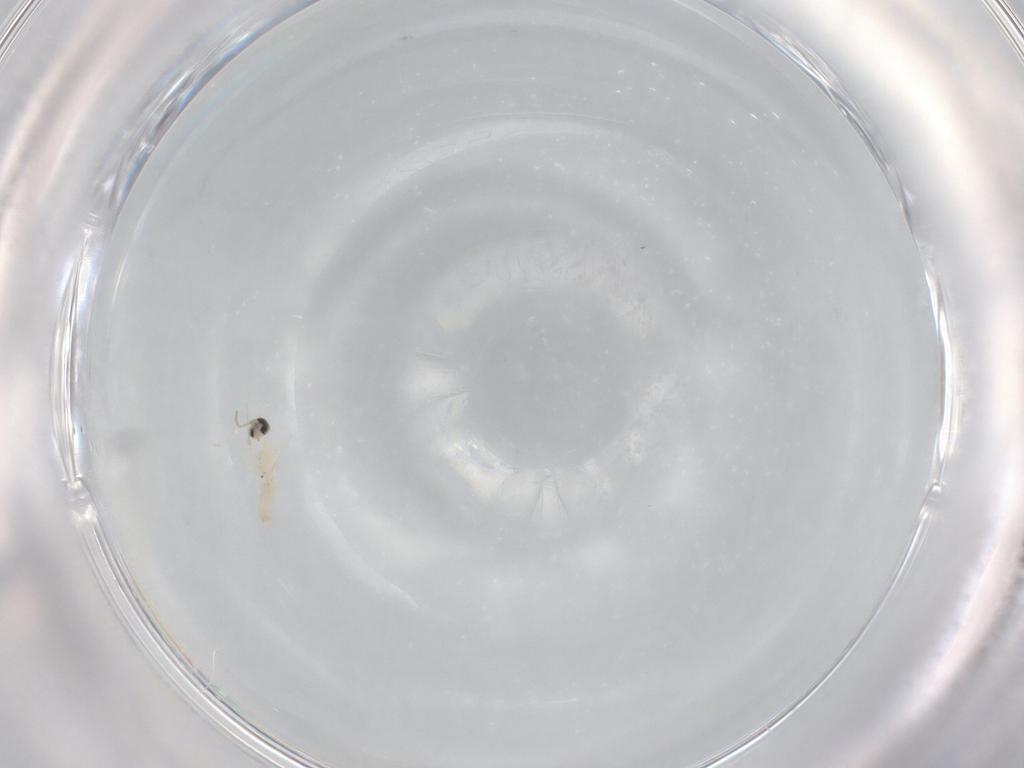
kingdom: Animalia
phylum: Arthropoda
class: Insecta
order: Diptera
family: Cecidomyiidae
